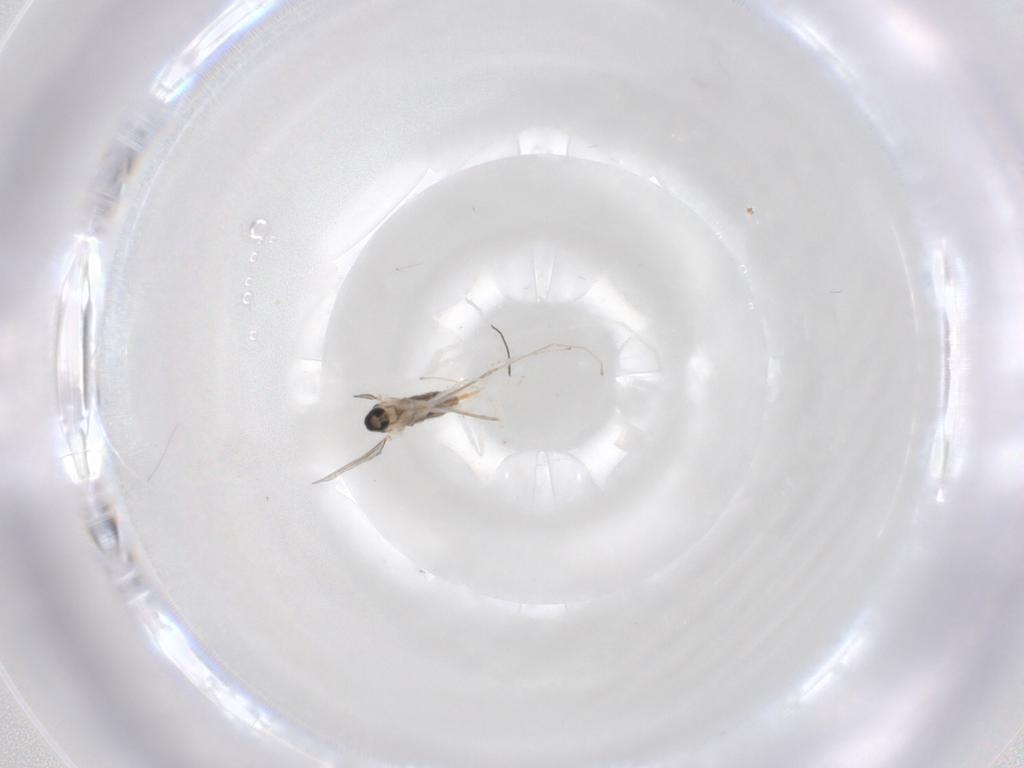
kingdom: Animalia
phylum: Arthropoda
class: Insecta
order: Diptera
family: Cecidomyiidae
